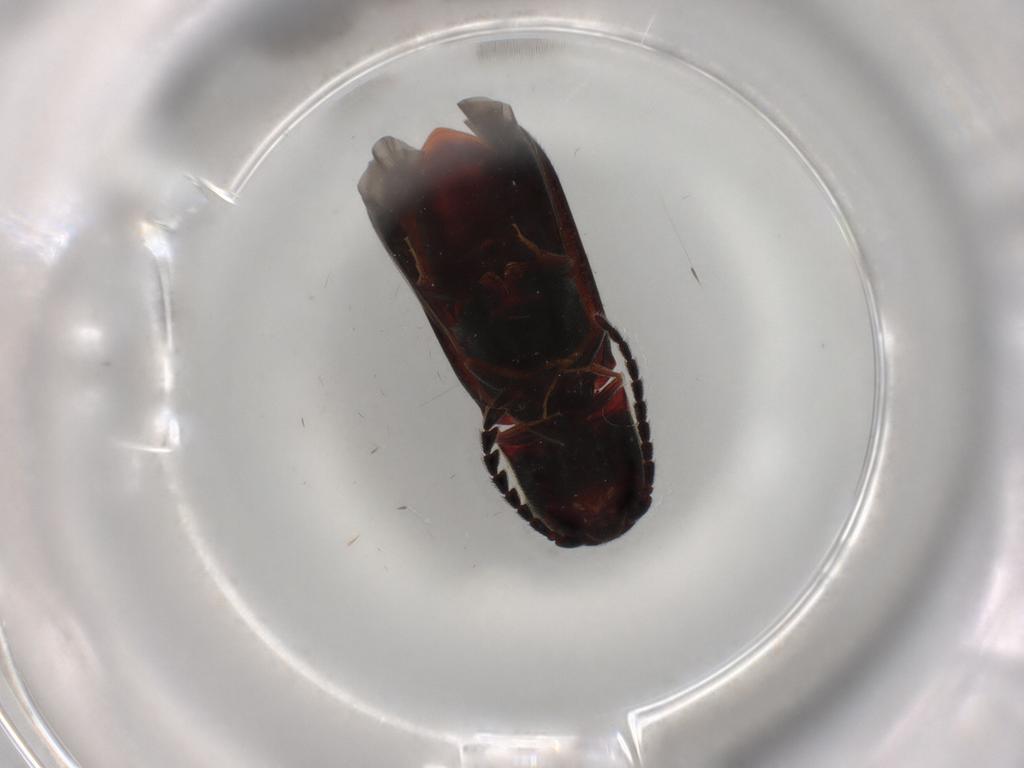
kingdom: Animalia
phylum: Arthropoda
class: Insecta
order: Coleoptera
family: Eucnemidae
